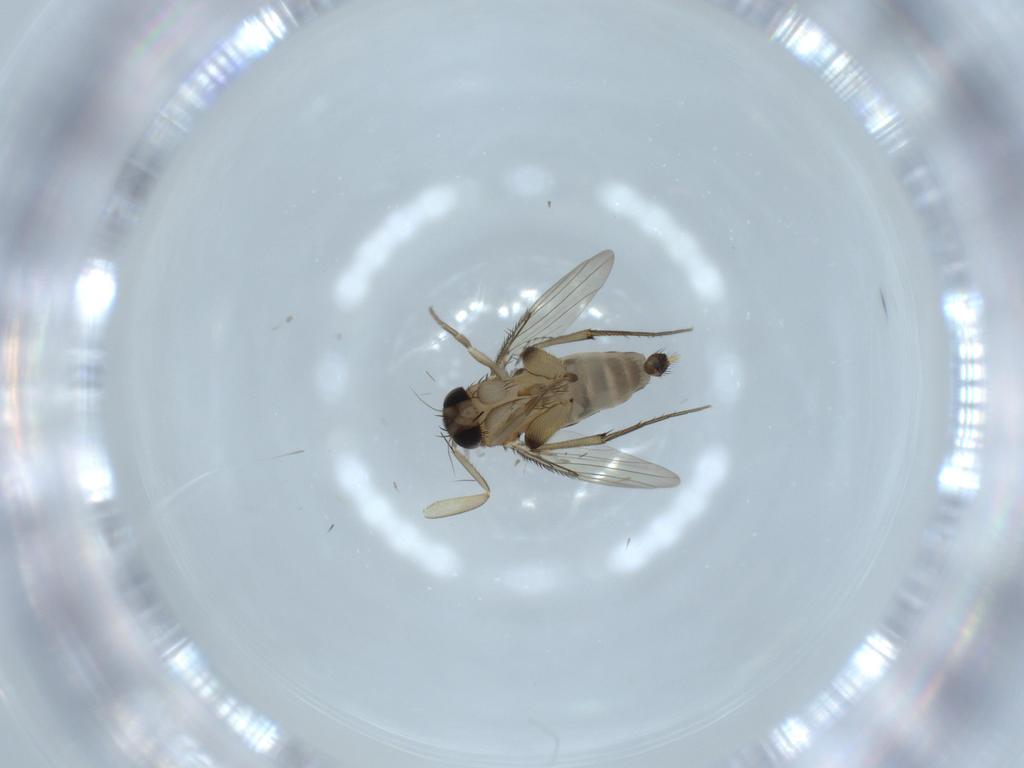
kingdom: Animalia
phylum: Arthropoda
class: Insecta
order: Diptera
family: Phoridae
